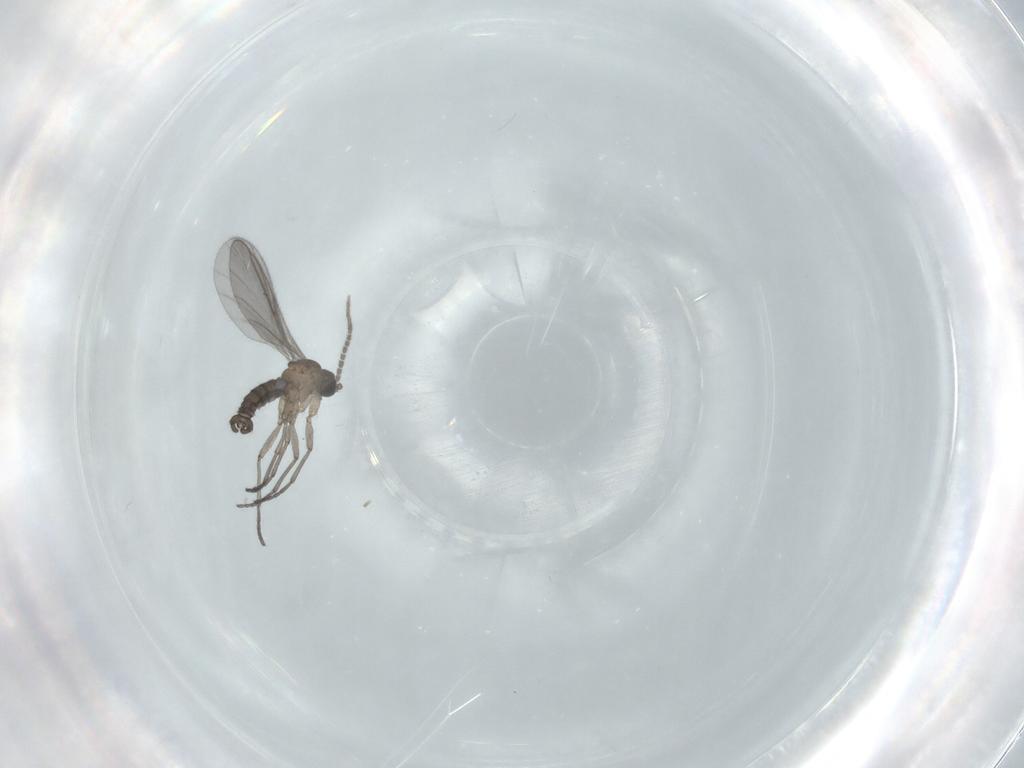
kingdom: Animalia
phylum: Arthropoda
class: Insecta
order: Diptera
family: Sciaridae
